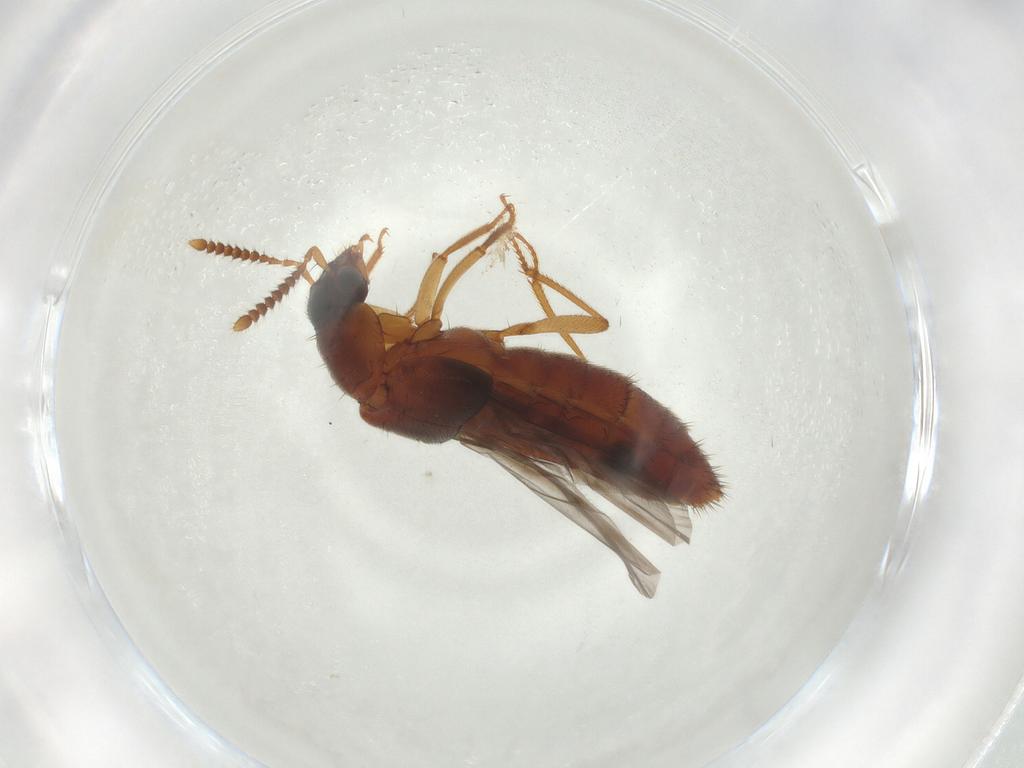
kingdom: Animalia
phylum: Arthropoda
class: Insecta
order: Coleoptera
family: Staphylinidae
